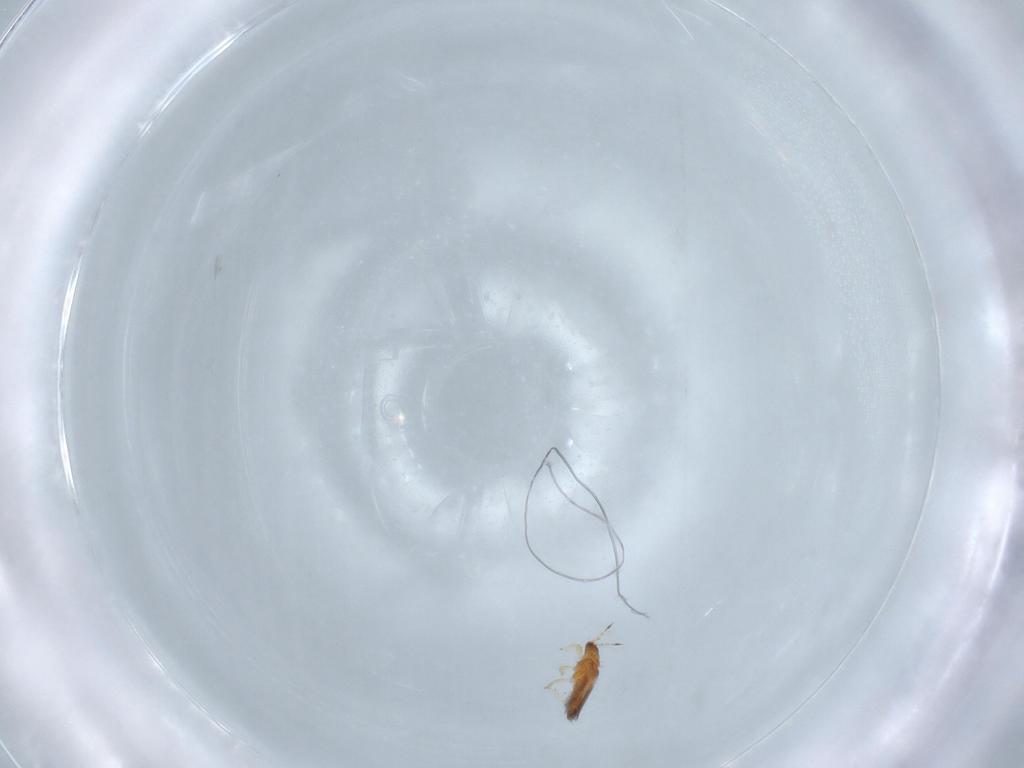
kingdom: Animalia
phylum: Arthropoda
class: Insecta
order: Thysanoptera
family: Thripidae
